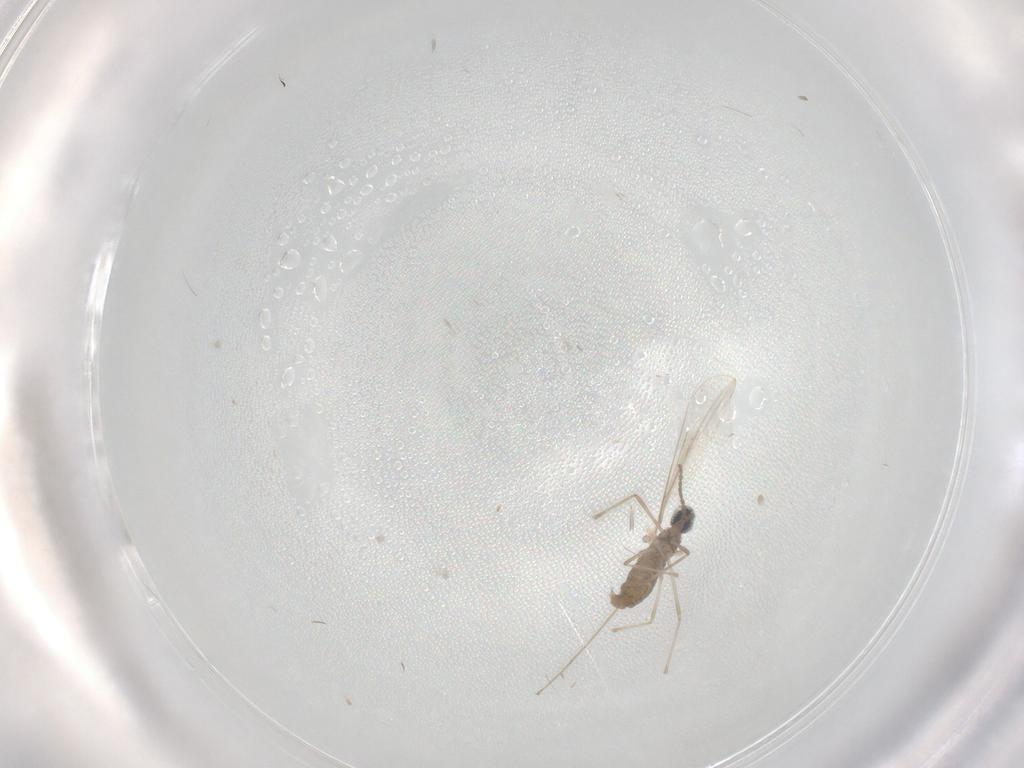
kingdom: Animalia
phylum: Arthropoda
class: Insecta
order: Diptera
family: Cecidomyiidae
